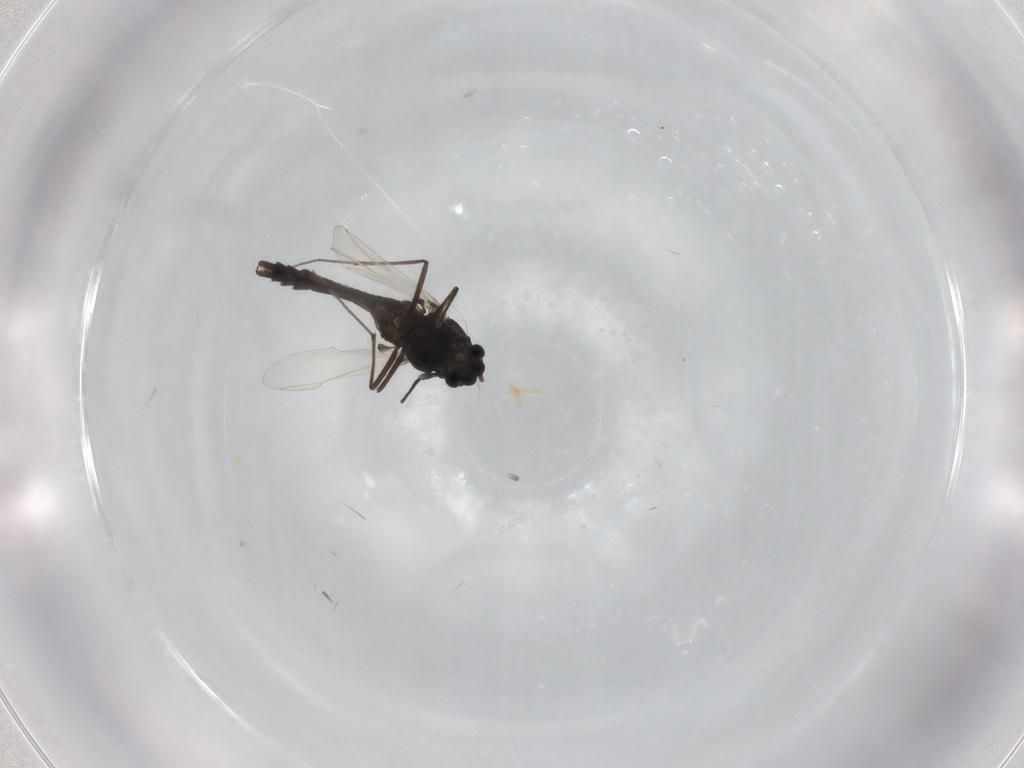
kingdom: Animalia
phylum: Arthropoda
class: Insecta
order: Diptera
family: Chironomidae
